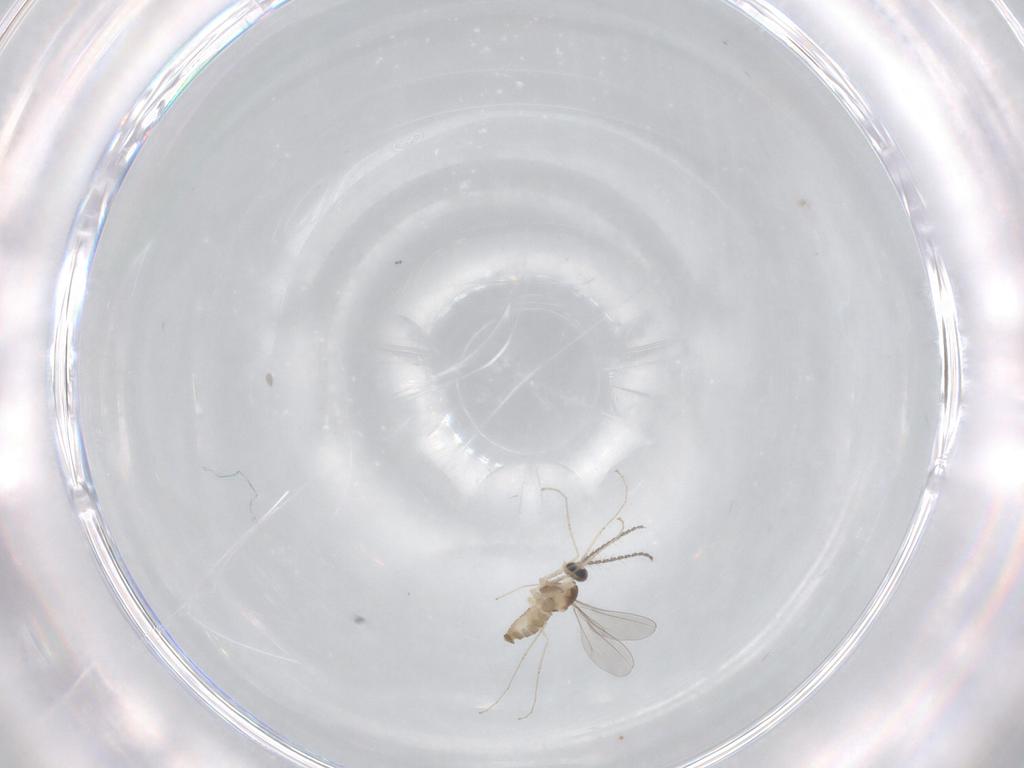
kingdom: Animalia
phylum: Arthropoda
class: Insecta
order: Diptera
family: Cecidomyiidae
